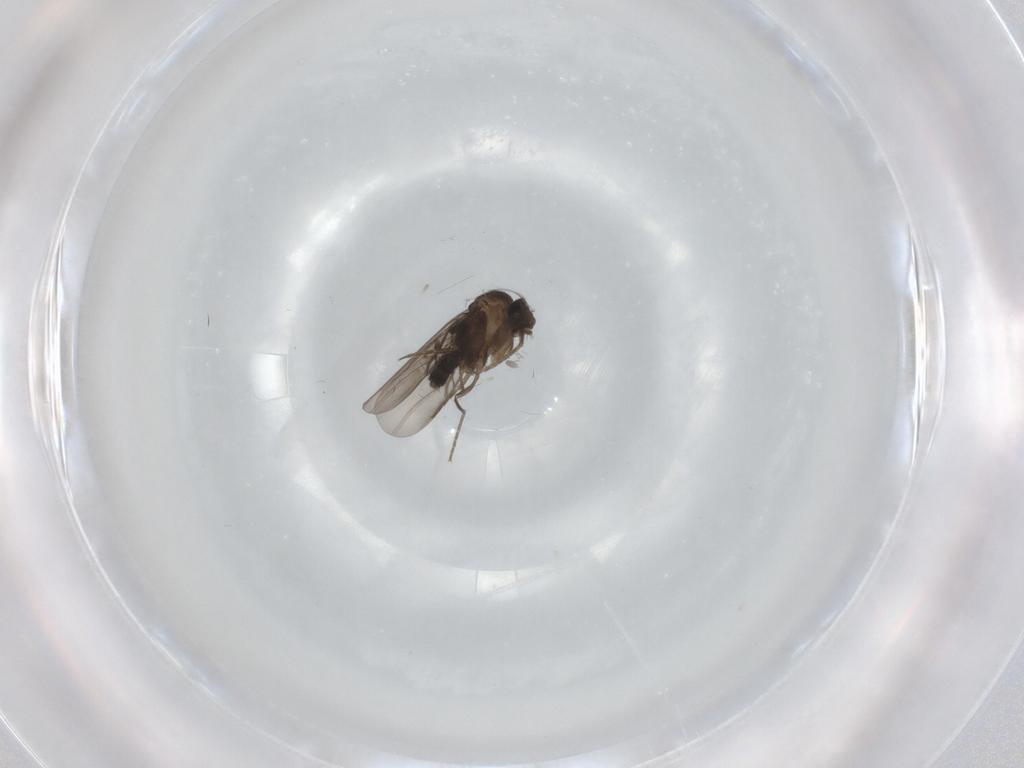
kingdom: Animalia
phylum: Arthropoda
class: Insecta
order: Diptera
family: Phoridae
